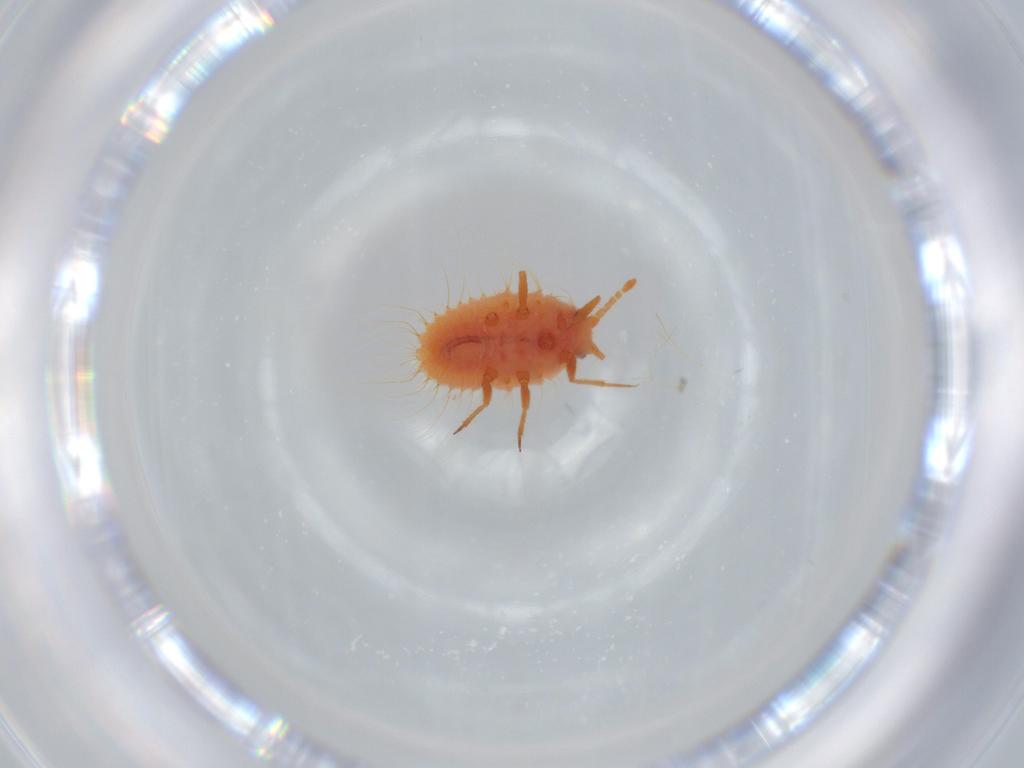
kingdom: Animalia
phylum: Arthropoda
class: Insecta
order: Hemiptera
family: Coccoidea_incertae_sedis
